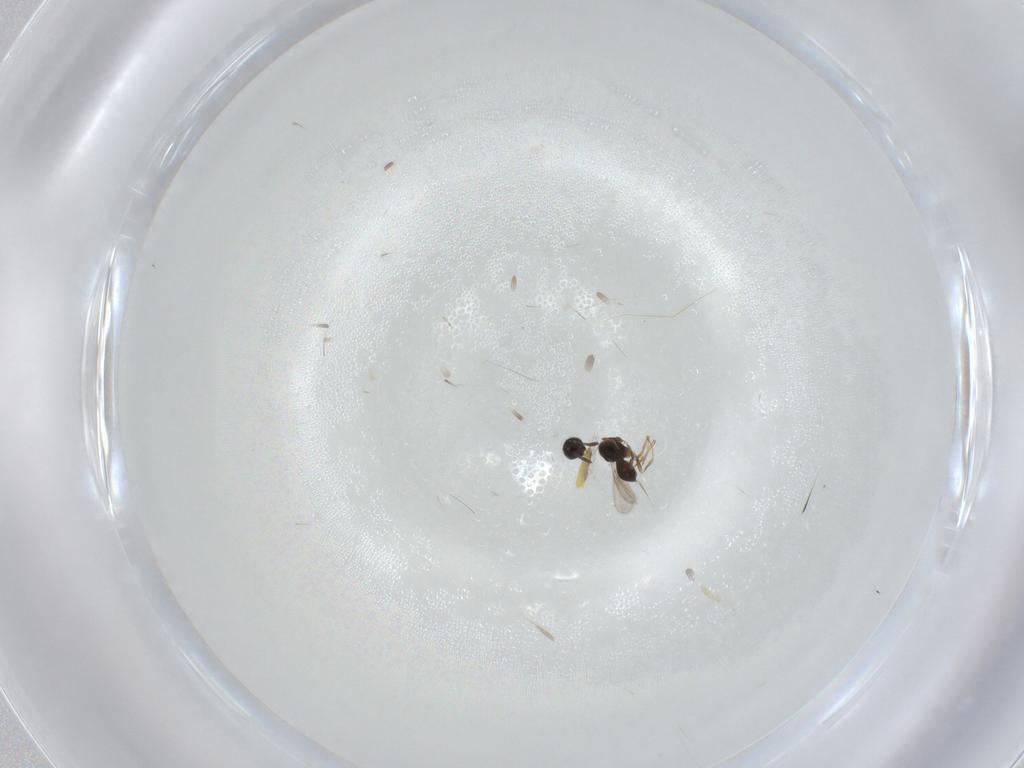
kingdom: Animalia
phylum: Arthropoda
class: Insecta
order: Hymenoptera
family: Scelionidae
